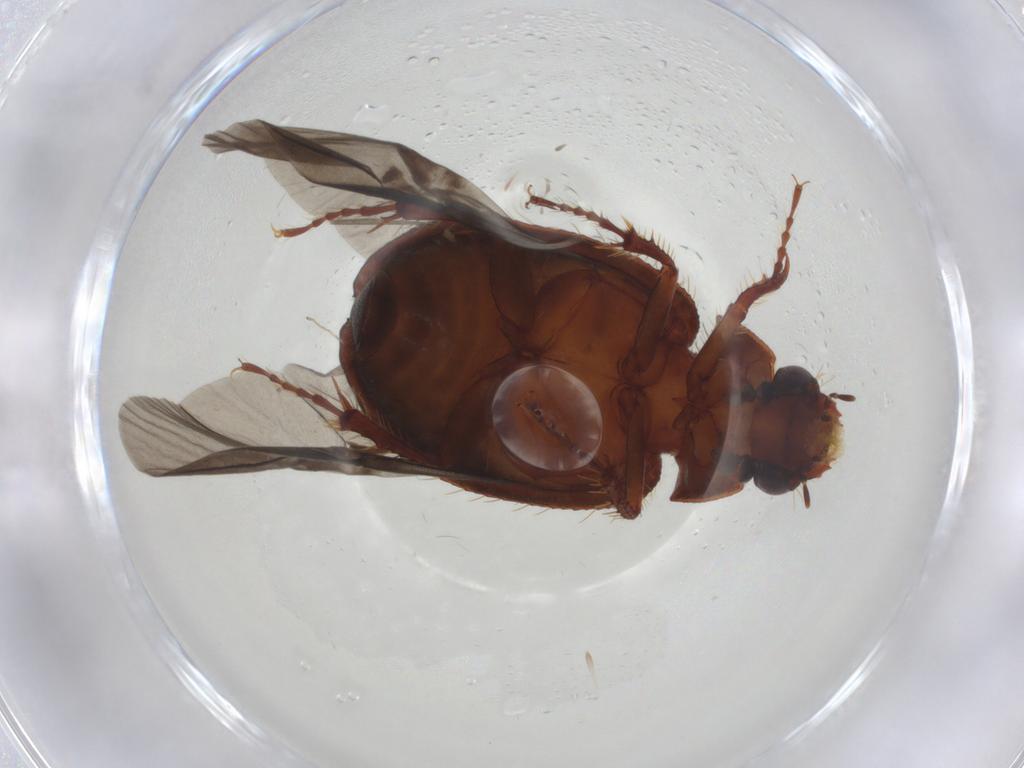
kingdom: Animalia
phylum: Arthropoda
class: Insecta
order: Coleoptera
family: Hybosoridae
